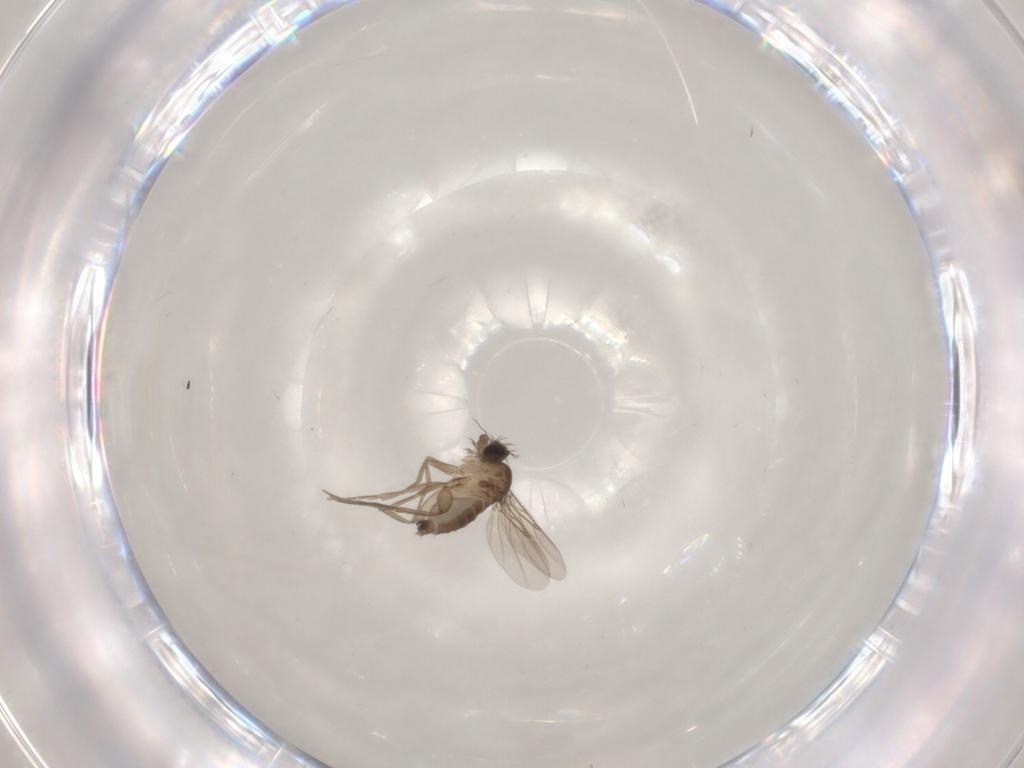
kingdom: Animalia
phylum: Arthropoda
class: Insecta
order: Diptera
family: Phoridae
